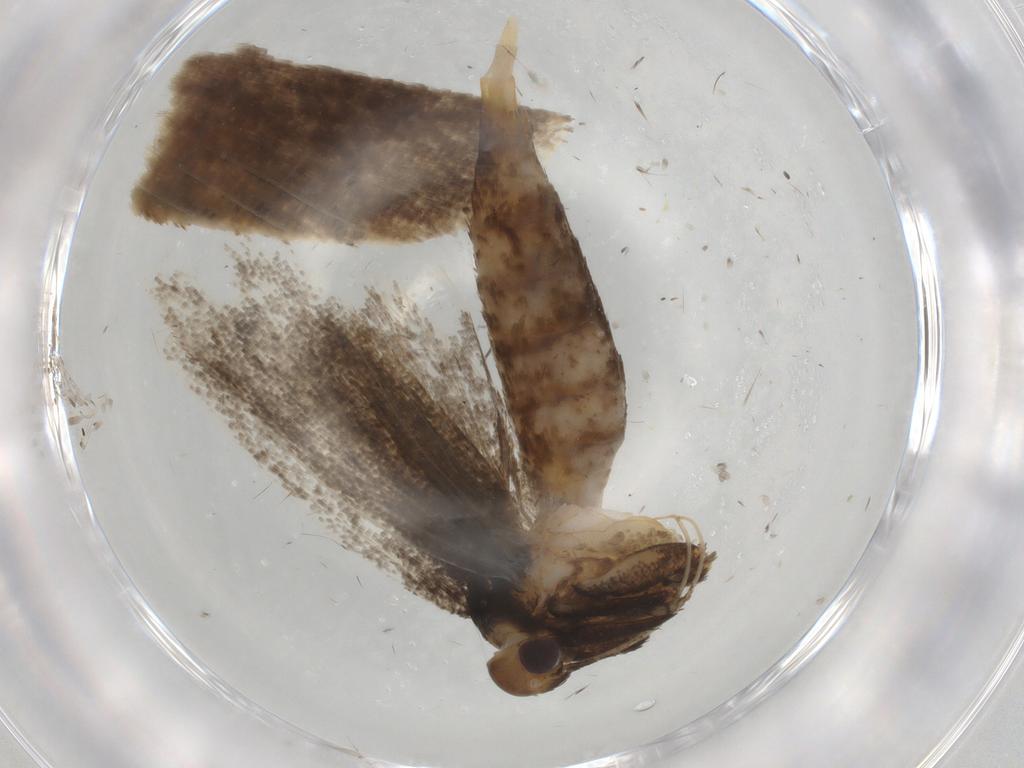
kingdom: Animalia
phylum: Arthropoda
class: Insecta
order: Lepidoptera
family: Lecithoceridae
